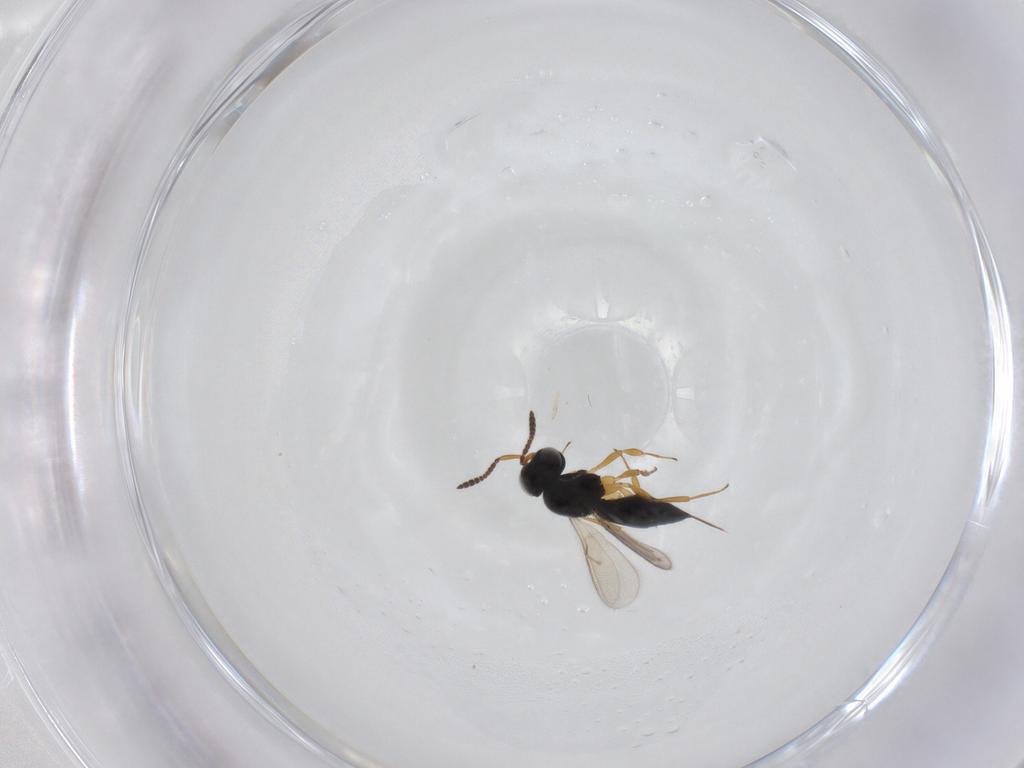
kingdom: Animalia
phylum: Arthropoda
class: Insecta
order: Hymenoptera
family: Scelionidae
